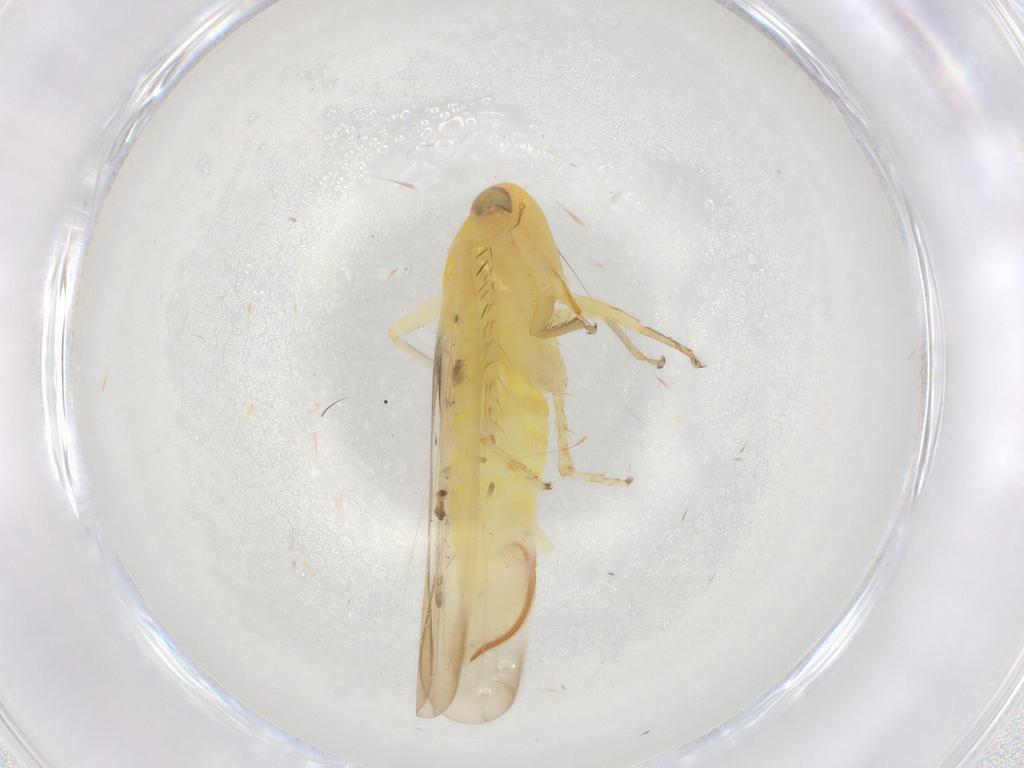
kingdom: Animalia
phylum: Arthropoda
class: Insecta
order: Hemiptera
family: Cicadellidae
